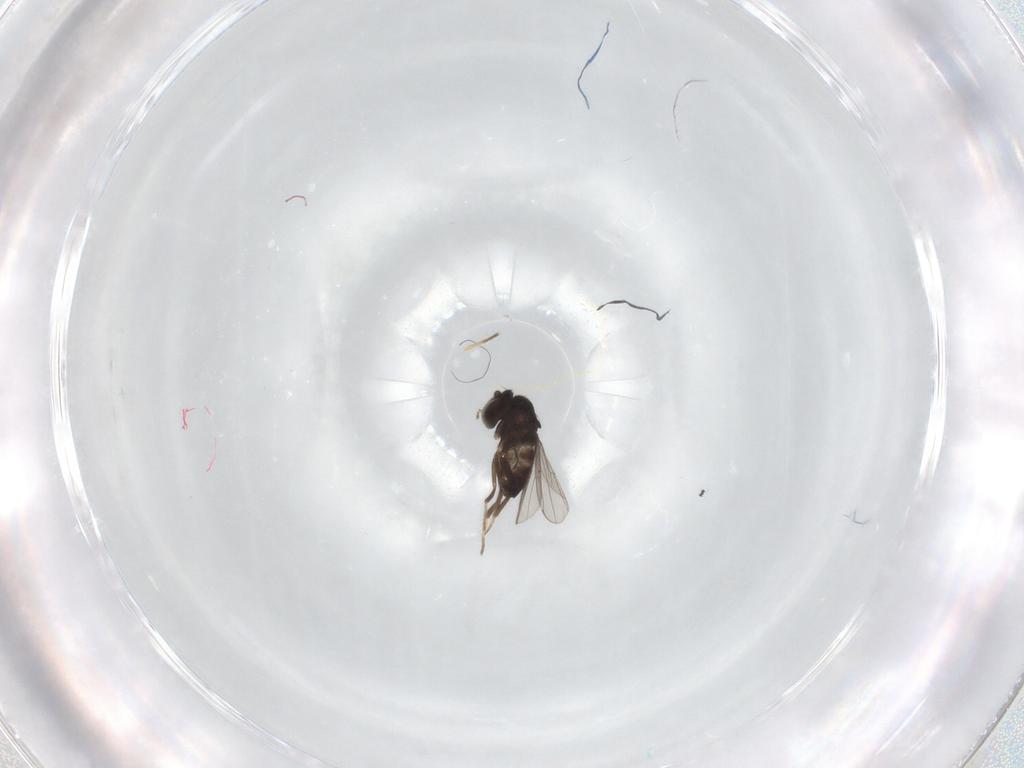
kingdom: Animalia
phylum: Arthropoda
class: Insecta
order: Diptera
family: Dolichopodidae
